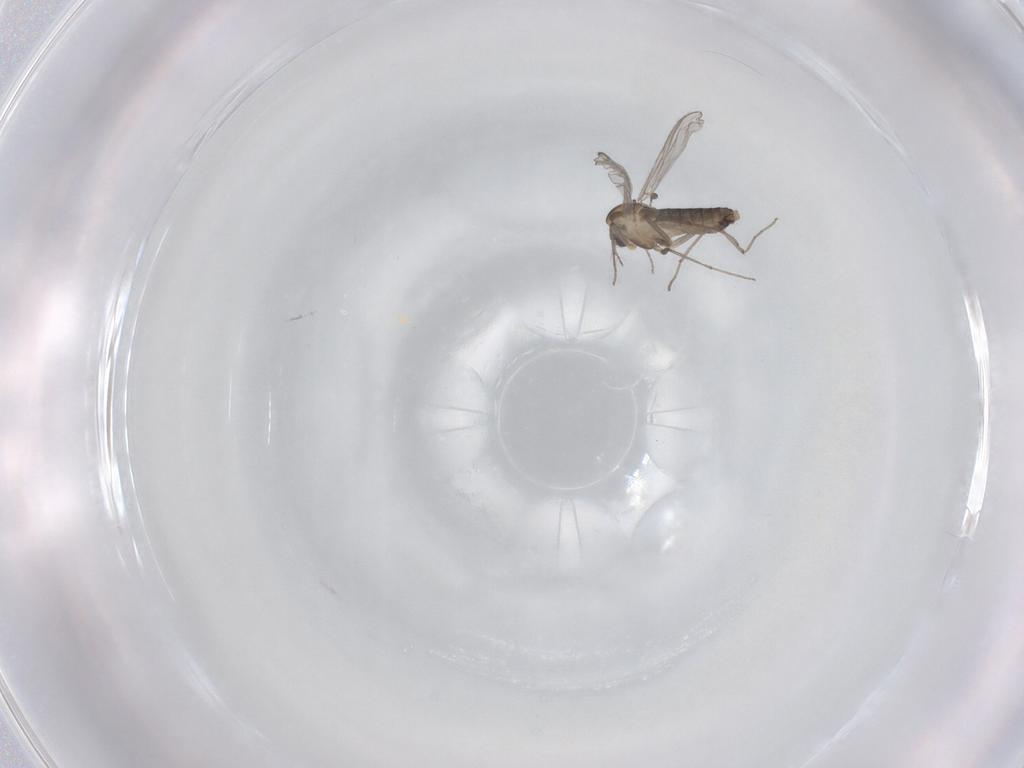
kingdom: Animalia
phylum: Arthropoda
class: Insecta
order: Diptera
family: Chironomidae
